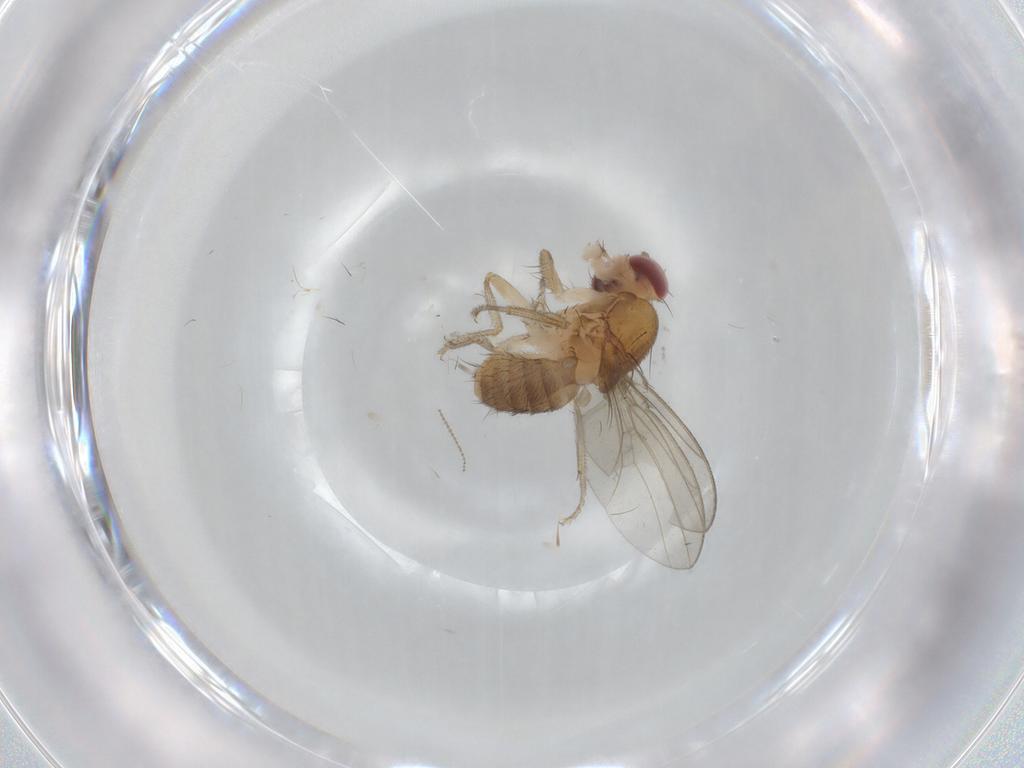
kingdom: Animalia
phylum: Arthropoda
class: Insecta
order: Diptera
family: Drosophilidae
